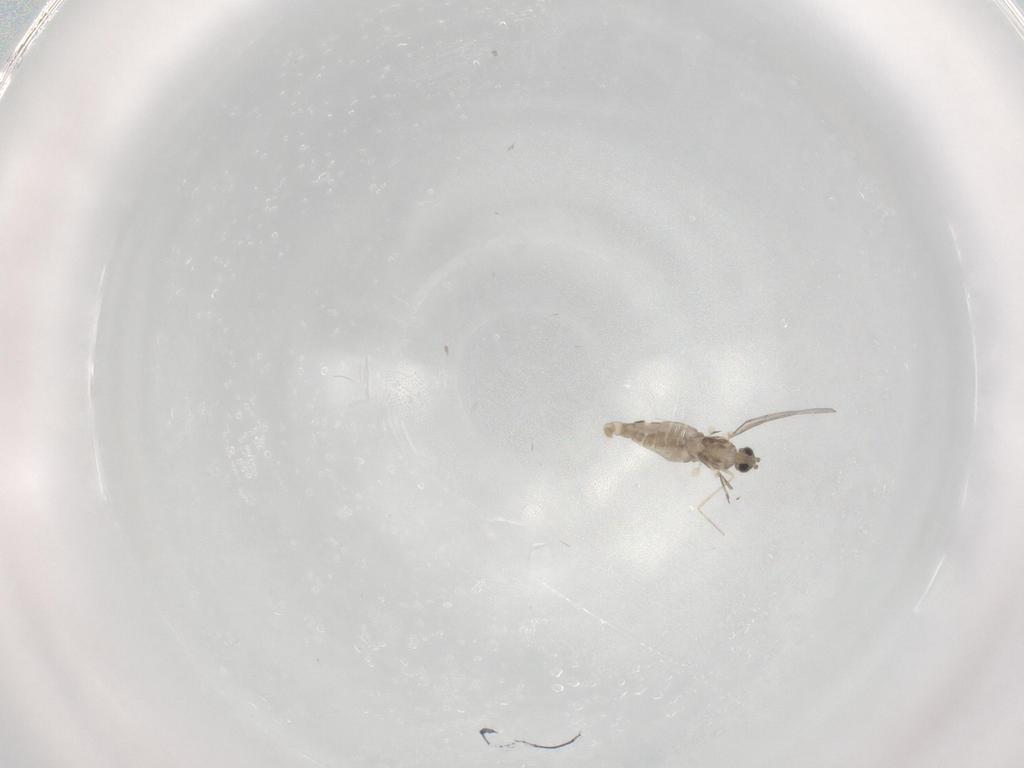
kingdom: Animalia
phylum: Arthropoda
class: Insecta
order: Diptera
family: Cecidomyiidae
